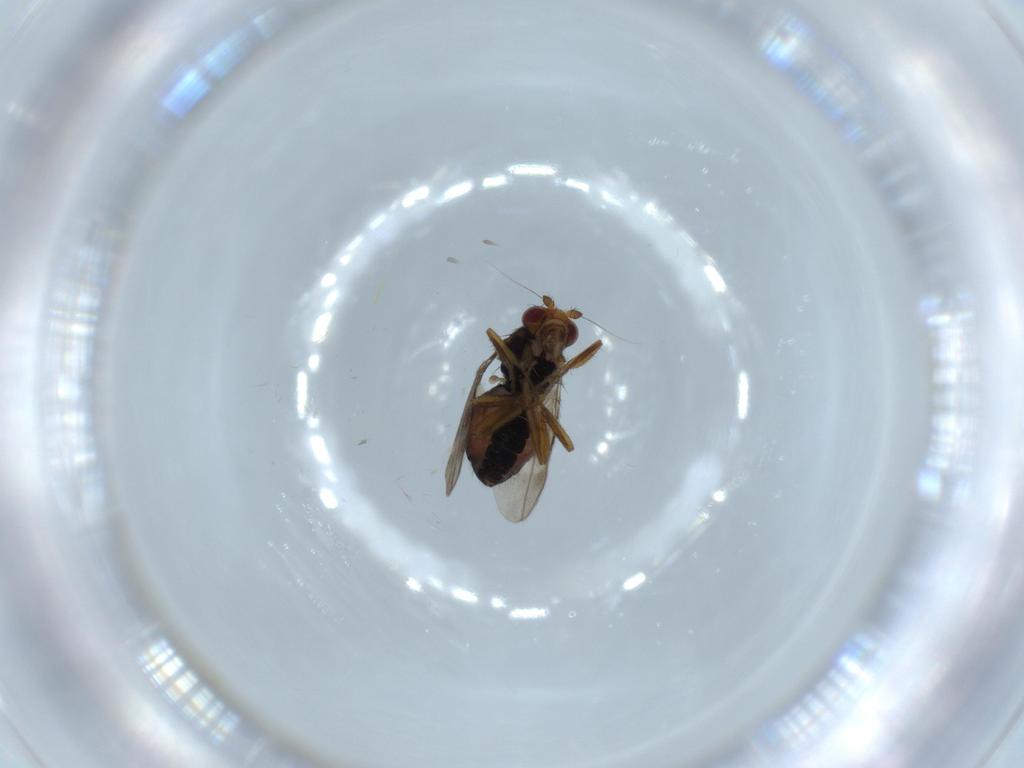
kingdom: Animalia
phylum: Arthropoda
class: Insecta
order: Diptera
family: Sphaeroceridae
